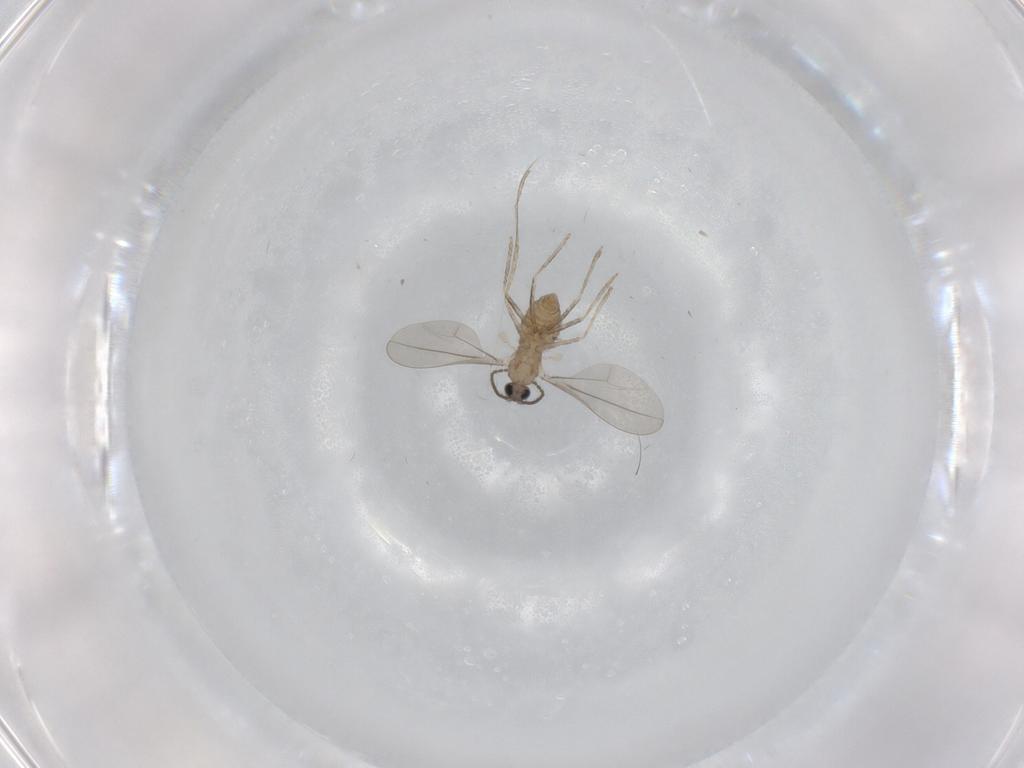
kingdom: Animalia
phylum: Arthropoda
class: Insecta
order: Diptera
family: Cecidomyiidae
